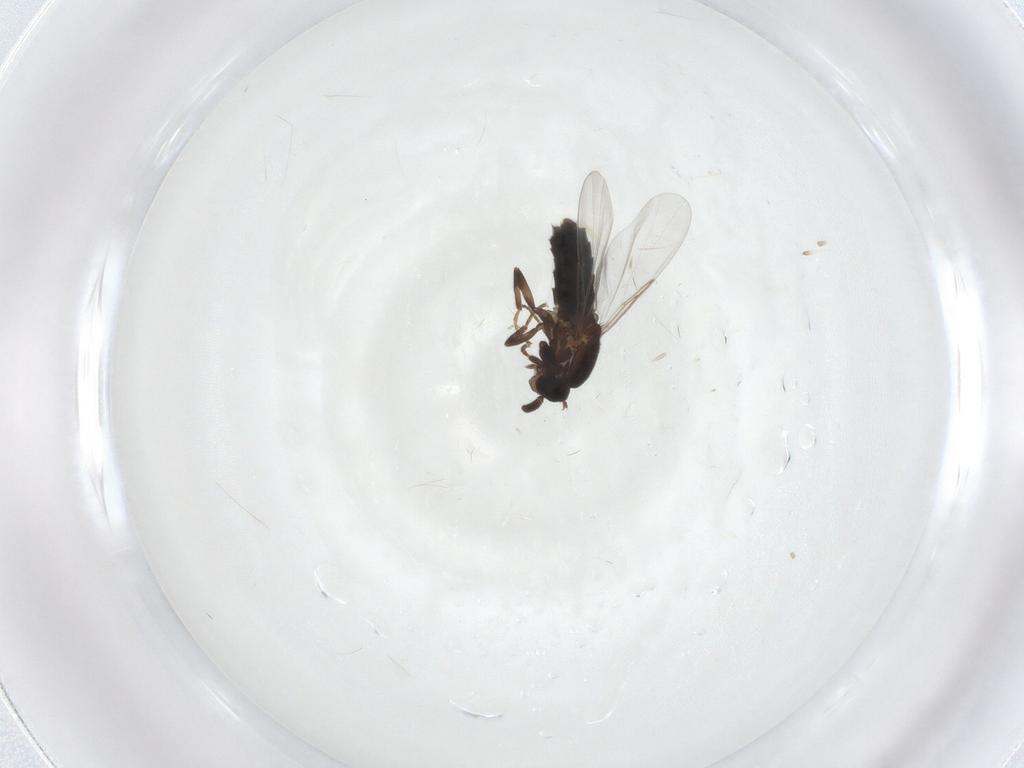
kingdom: Animalia
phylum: Arthropoda
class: Insecta
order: Diptera
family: Scatopsidae
